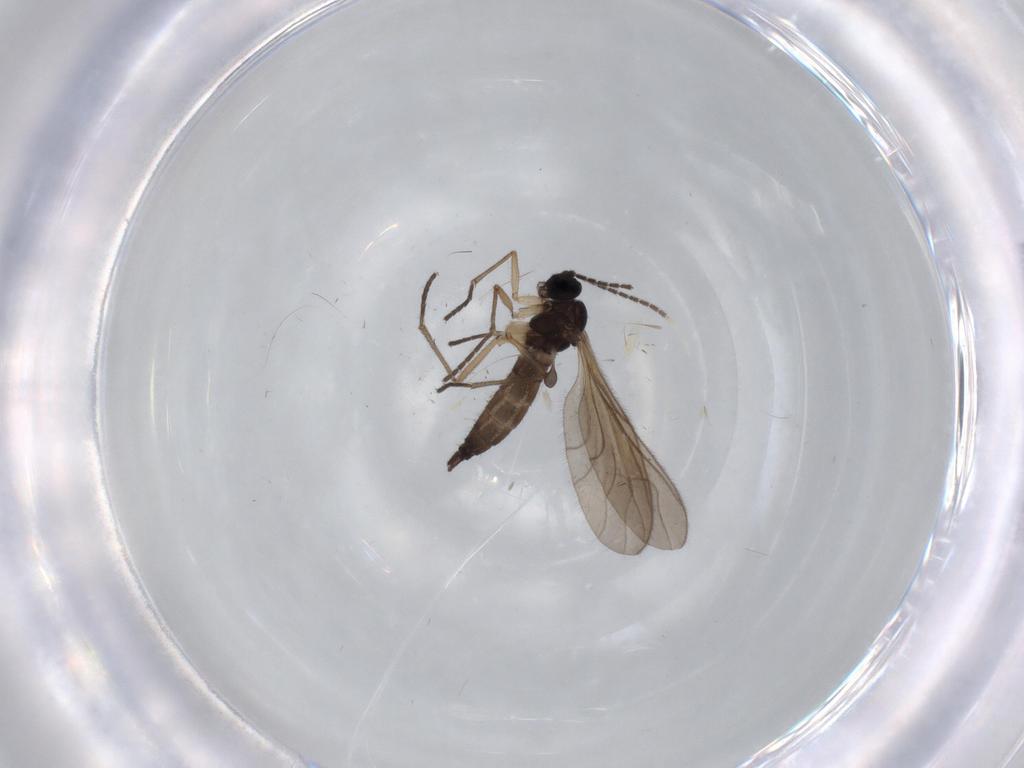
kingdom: Animalia
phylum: Arthropoda
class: Insecta
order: Diptera
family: Sciaridae
